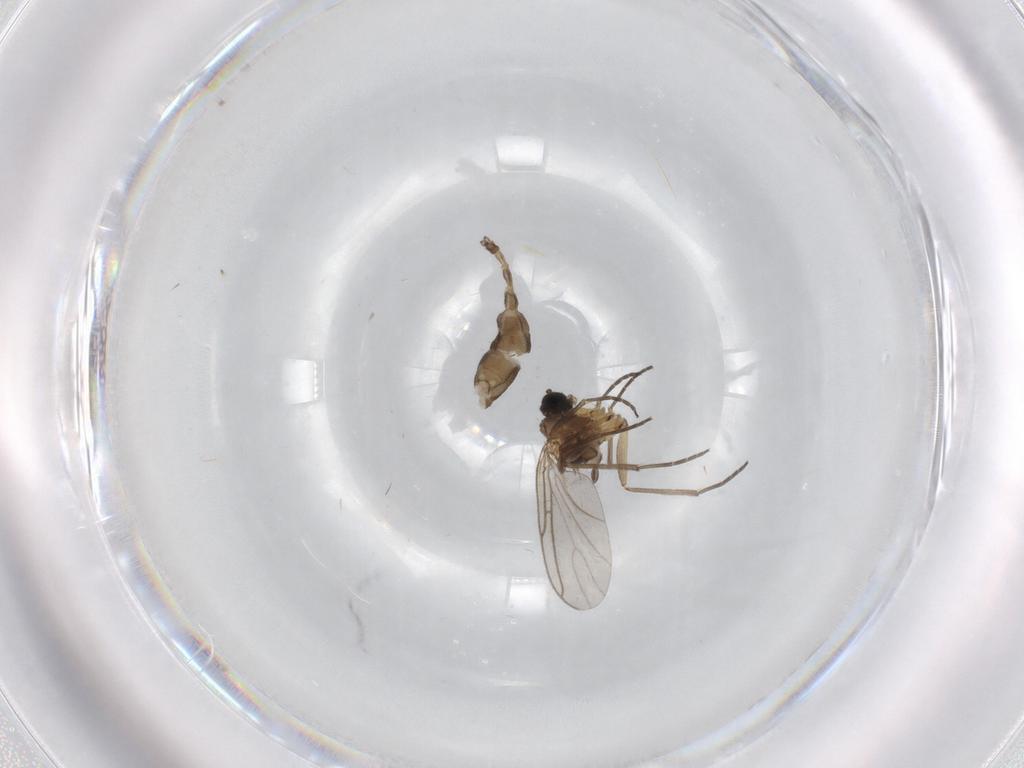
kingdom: Animalia
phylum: Arthropoda
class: Insecta
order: Diptera
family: Sciaridae
